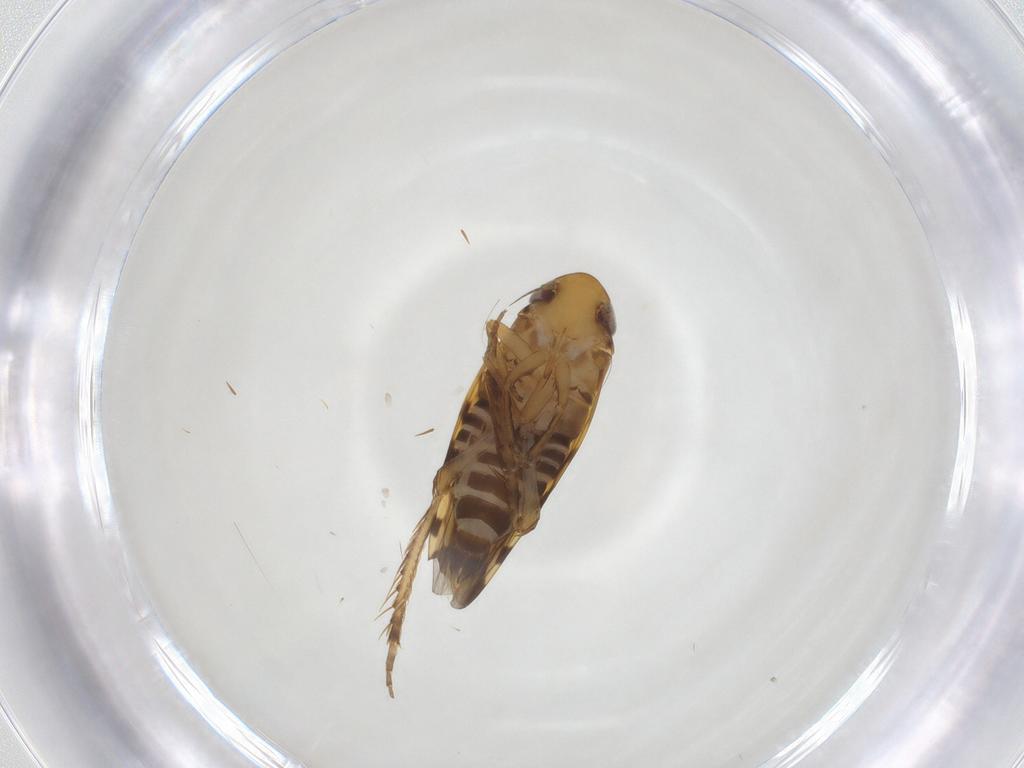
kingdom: Animalia
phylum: Arthropoda
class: Insecta
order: Hemiptera
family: Cicadellidae
